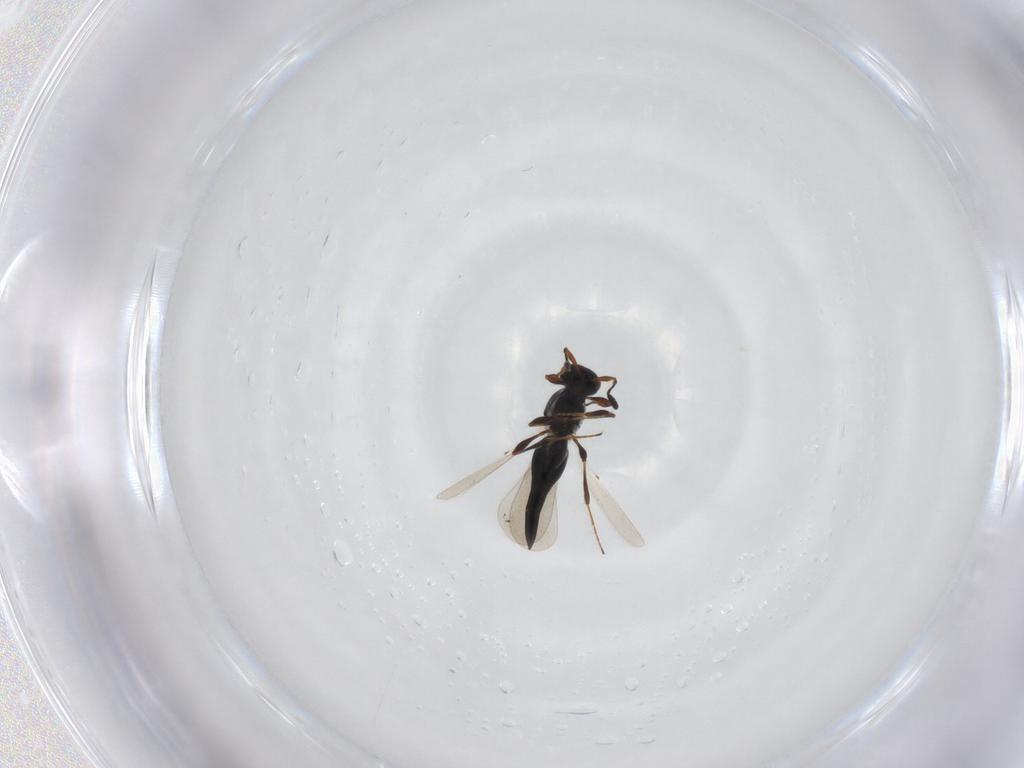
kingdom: Animalia
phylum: Arthropoda
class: Insecta
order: Hymenoptera
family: Platygastridae
